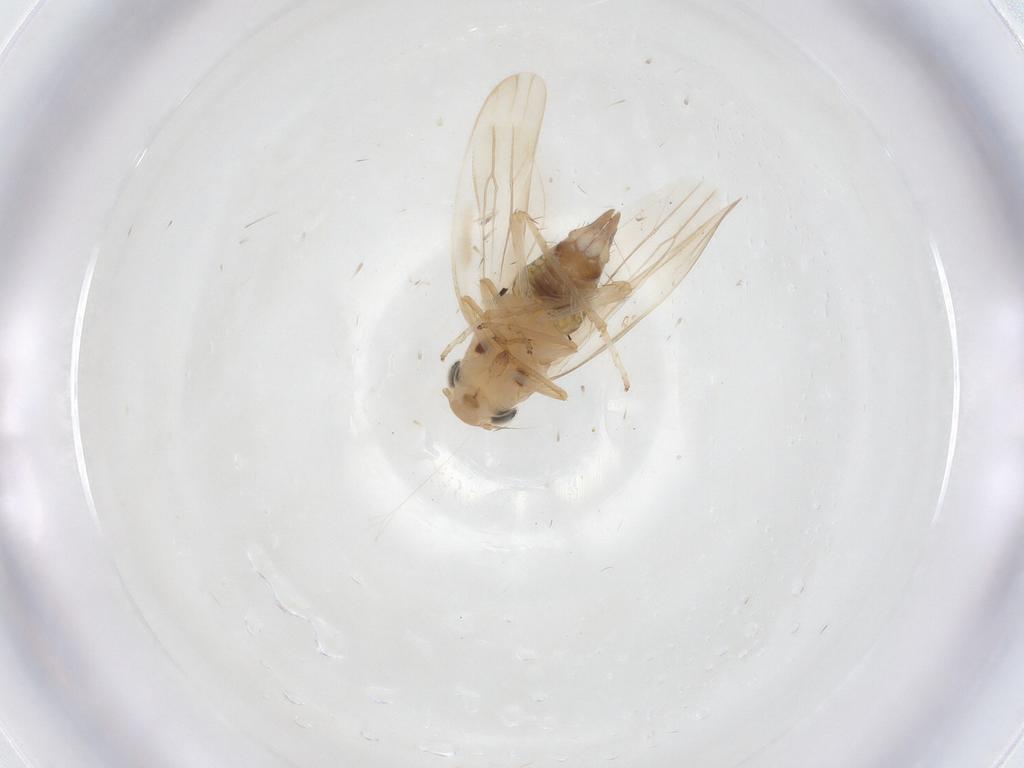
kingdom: Animalia
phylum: Arthropoda
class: Insecta
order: Hemiptera
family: Cicadellidae
